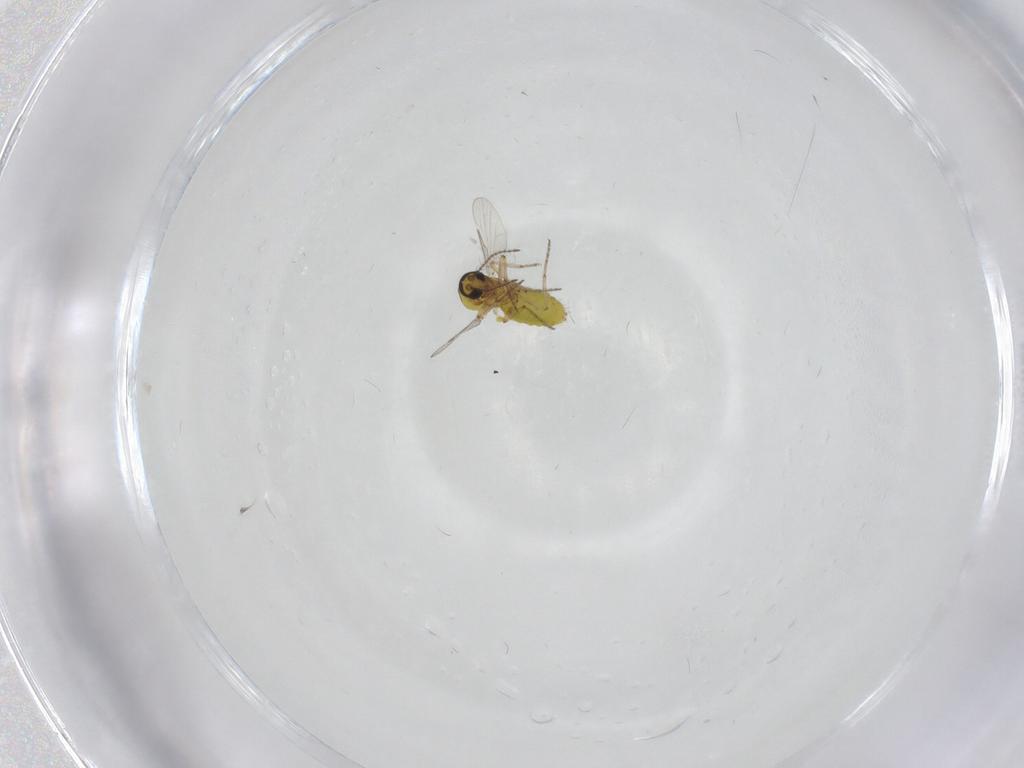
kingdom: Animalia
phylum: Arthropoda
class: Insecta
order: Diptera
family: Ceratopogonidae
